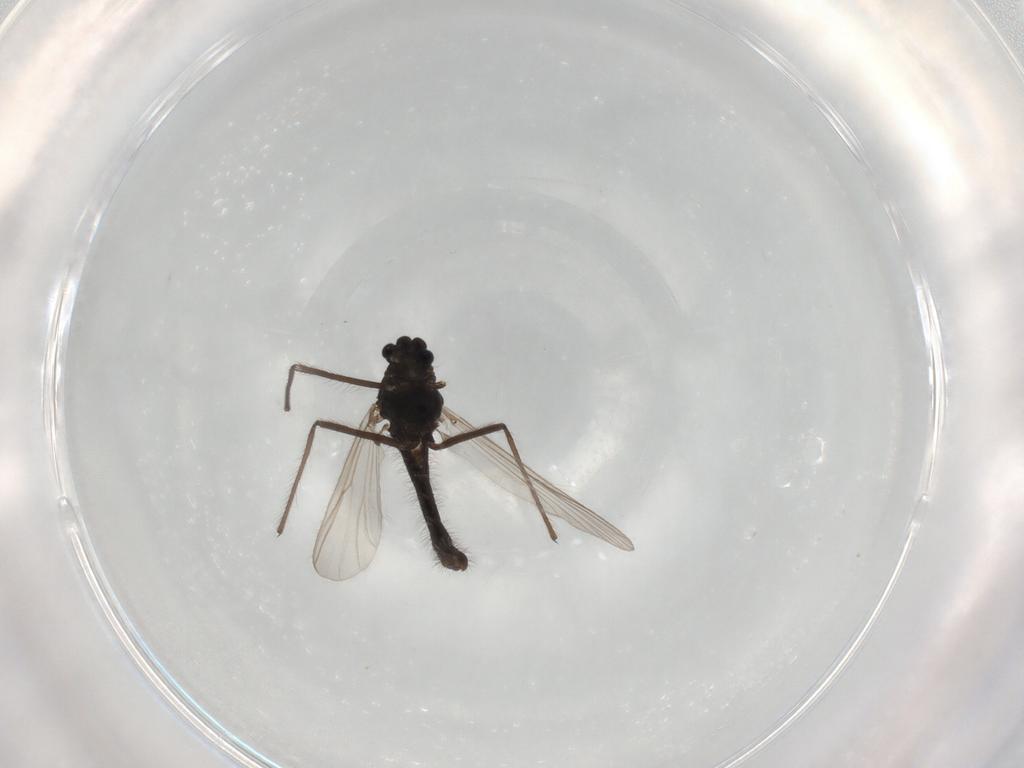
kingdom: Animalia
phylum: Arthropoda
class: Insecta
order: Diptera
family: Chironomidae
